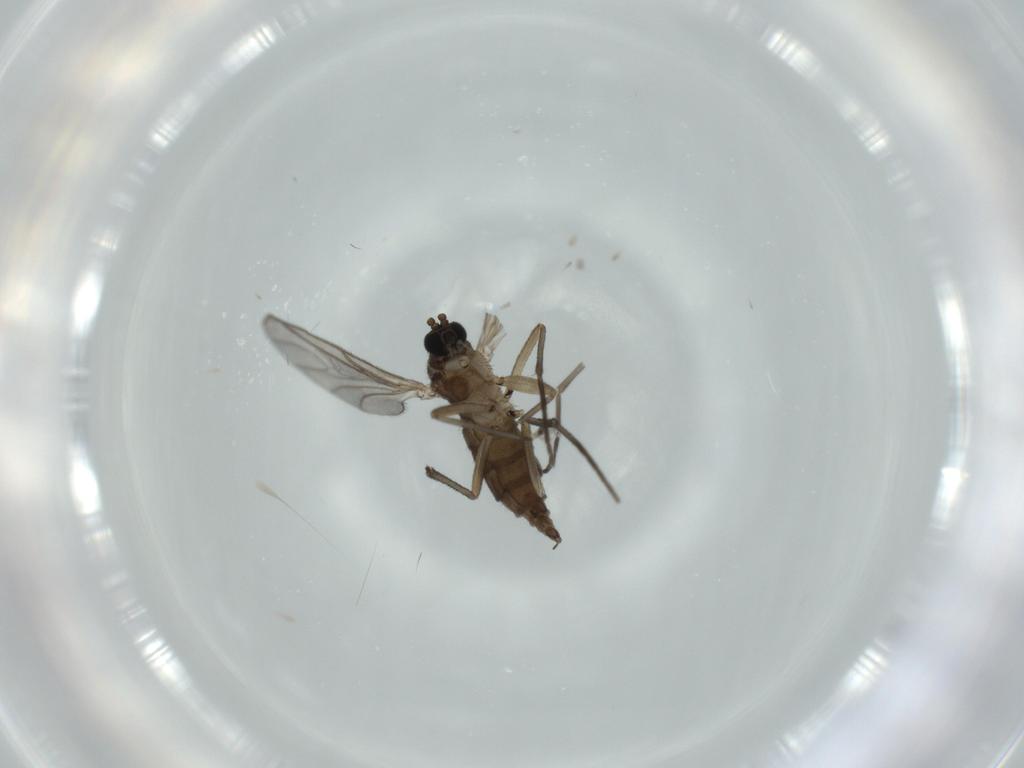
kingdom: Animalia
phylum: Arthropoda
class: Insecta
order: Diptera
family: Sciaridae
